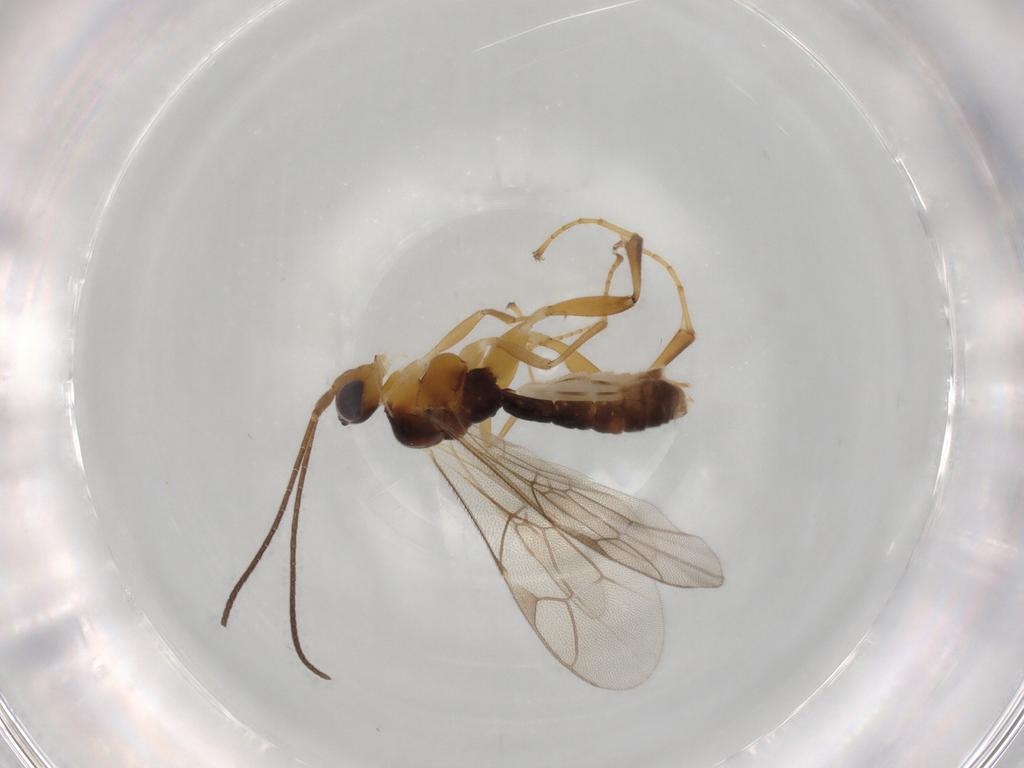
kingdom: Animalia
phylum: Arthropoda
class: Insecta
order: Hymenoptera
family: Ichneumonidae
